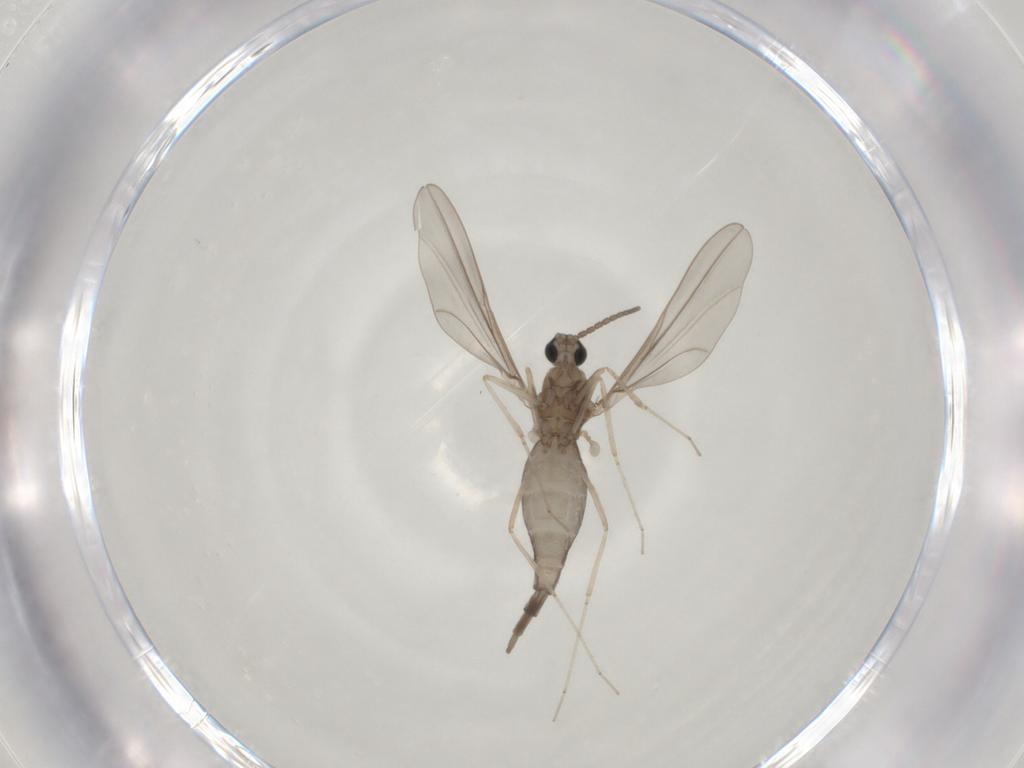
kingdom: Animalia
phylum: Arthropoda
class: Insecta
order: Diptera
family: Cecidomyiidae
